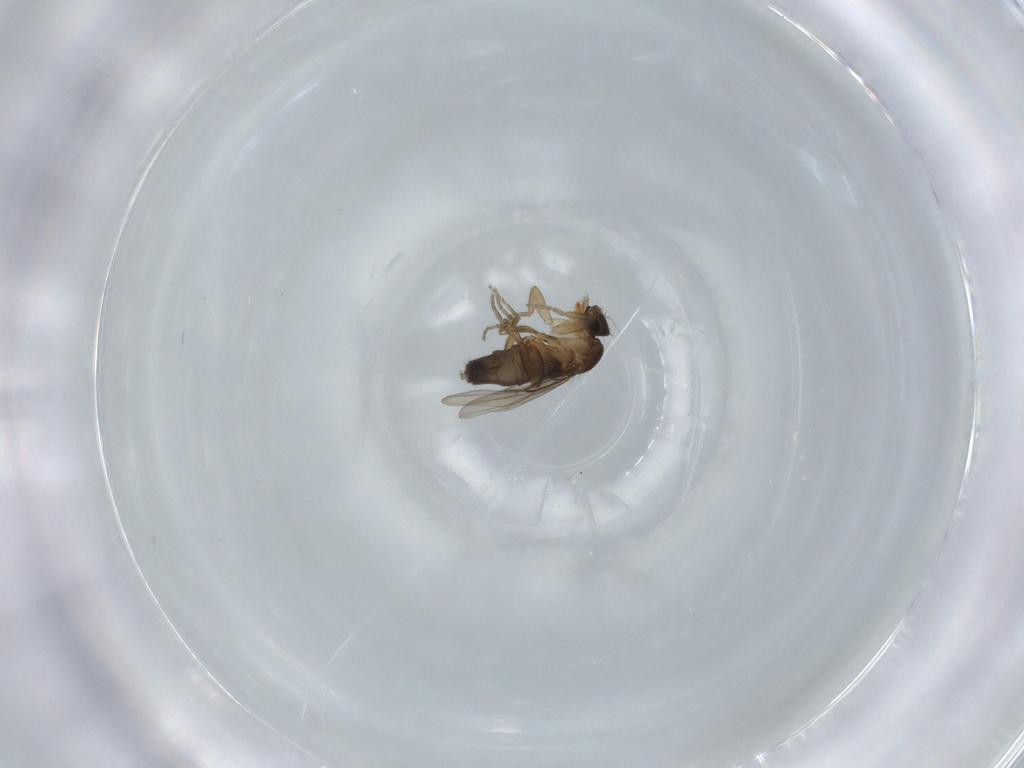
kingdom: Animalia
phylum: Arthropoda
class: Insecta
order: Diptera
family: Phoridae
